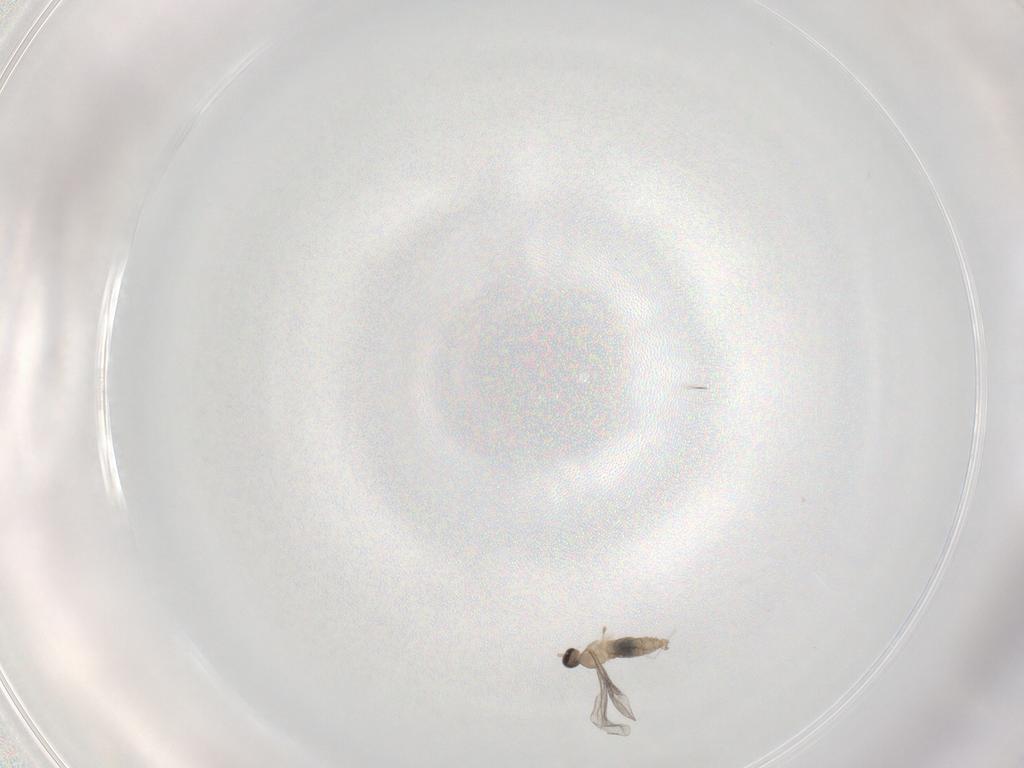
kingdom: Animalia
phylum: Arthropoda
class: Insecta
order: Diptera
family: Cecidomyiidae
